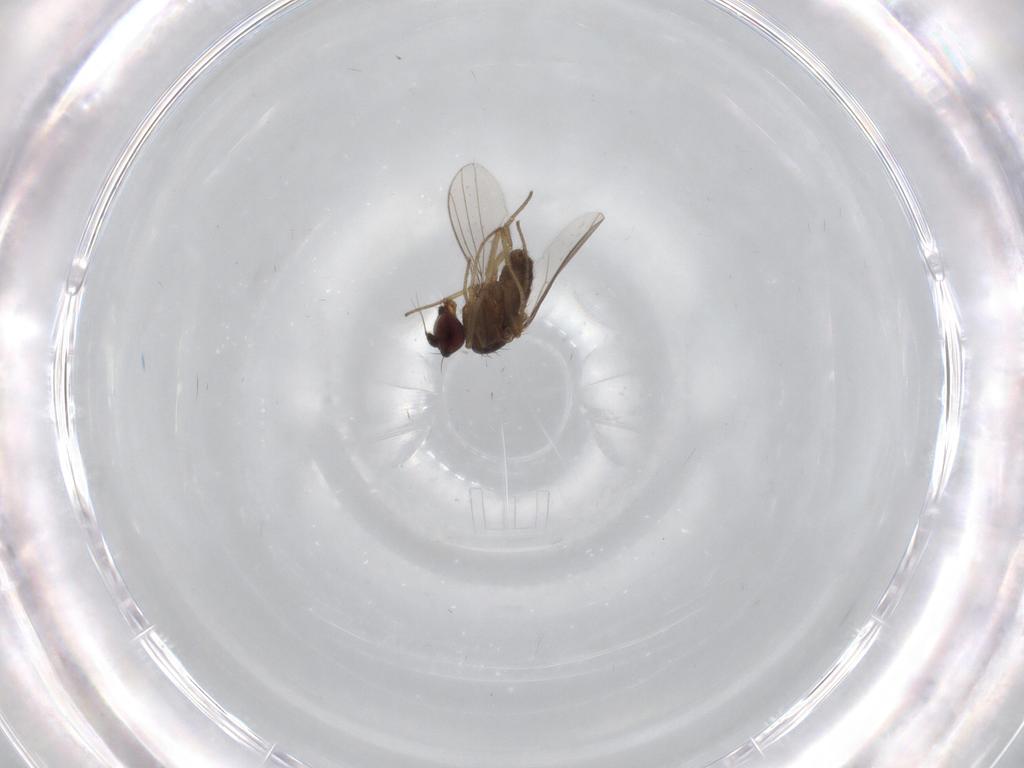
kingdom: Animalia
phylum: Arthropoda
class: Insecta
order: Diptera
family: Dolichopodidae
